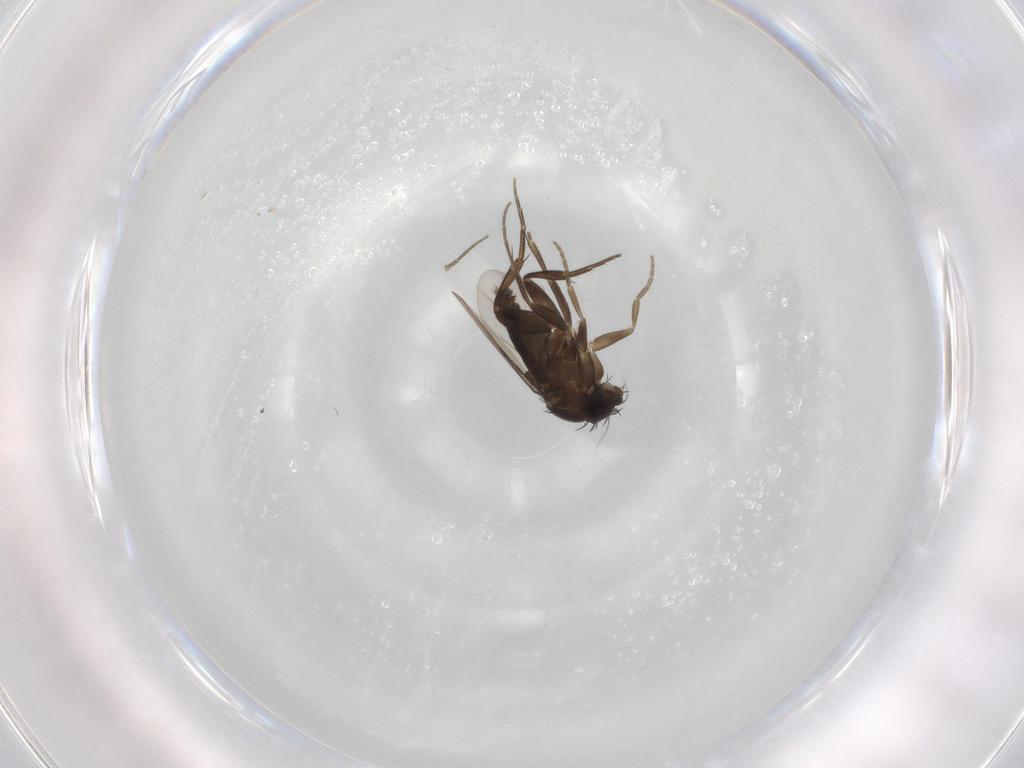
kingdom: Animalia
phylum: Arthropoda
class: Insecta
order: Diptera
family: Phoridae
